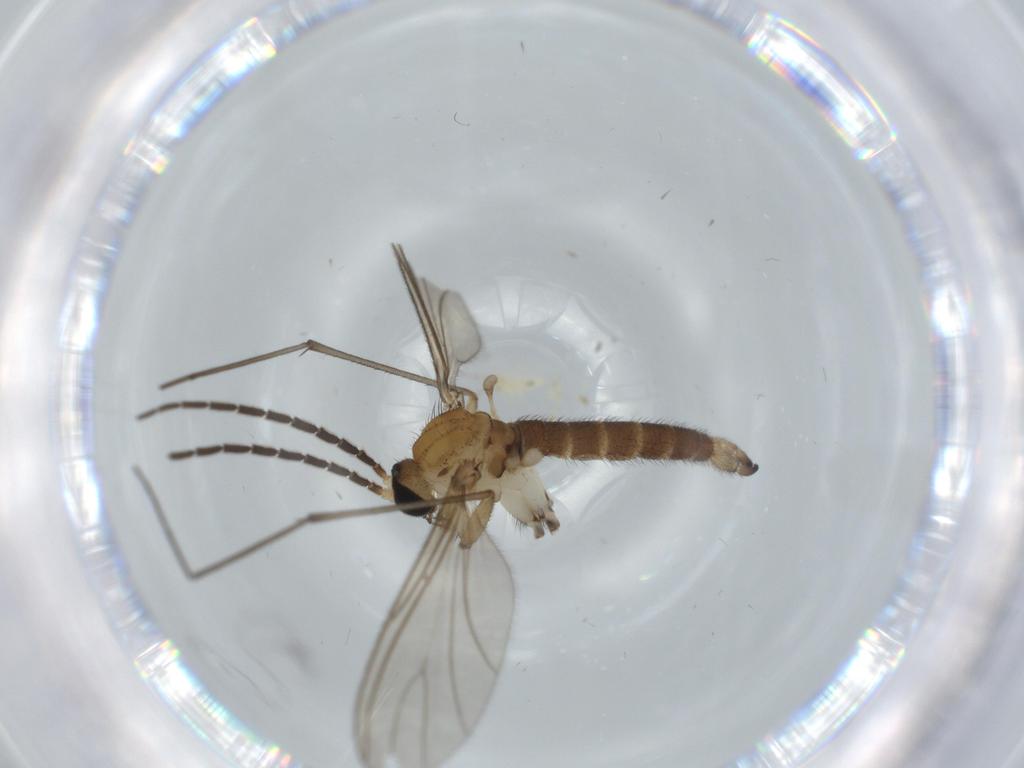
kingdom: Animalia
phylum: Arthropoda
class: Insecta
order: Diptera
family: Sciaridae
